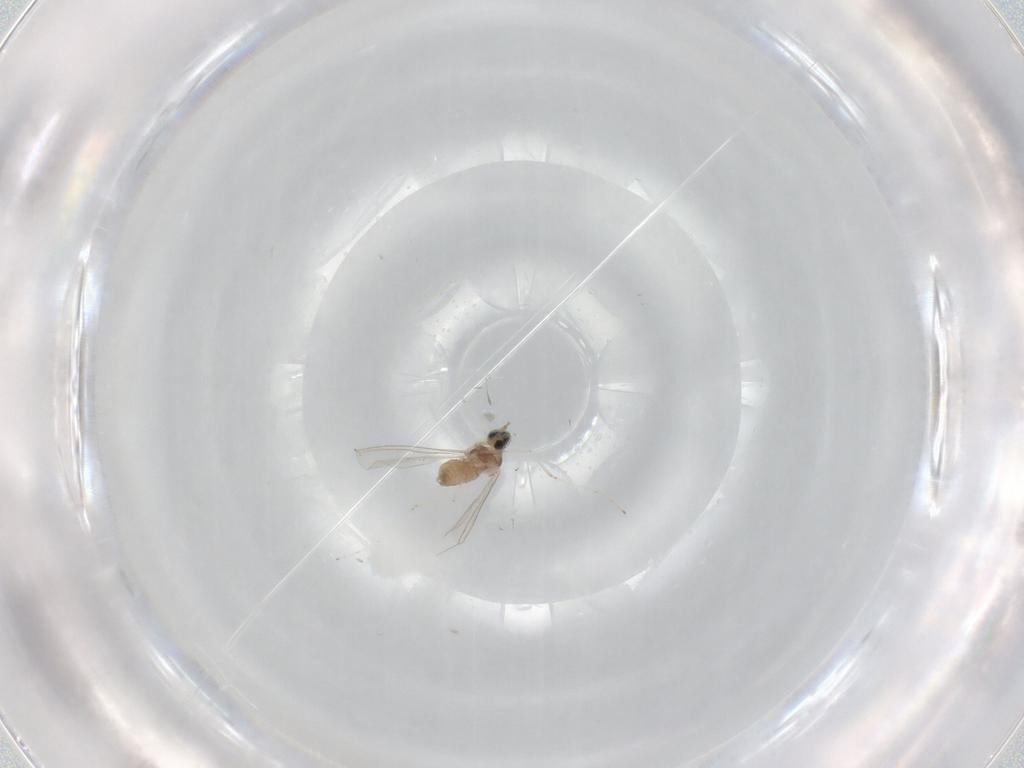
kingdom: Animalia
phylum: Arthropoda
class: Insecta
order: Diptera
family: Cecidomyiidae
